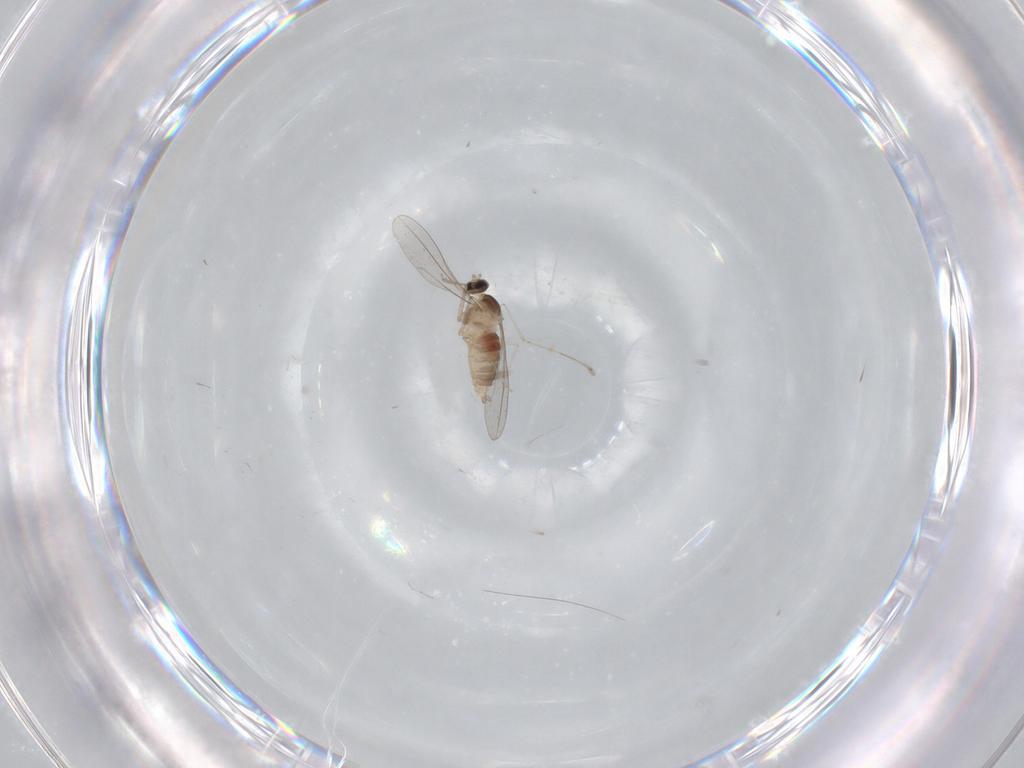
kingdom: Animalia
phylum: Arthropoda
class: Insecta
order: Diptera
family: Cecidomyiidae
